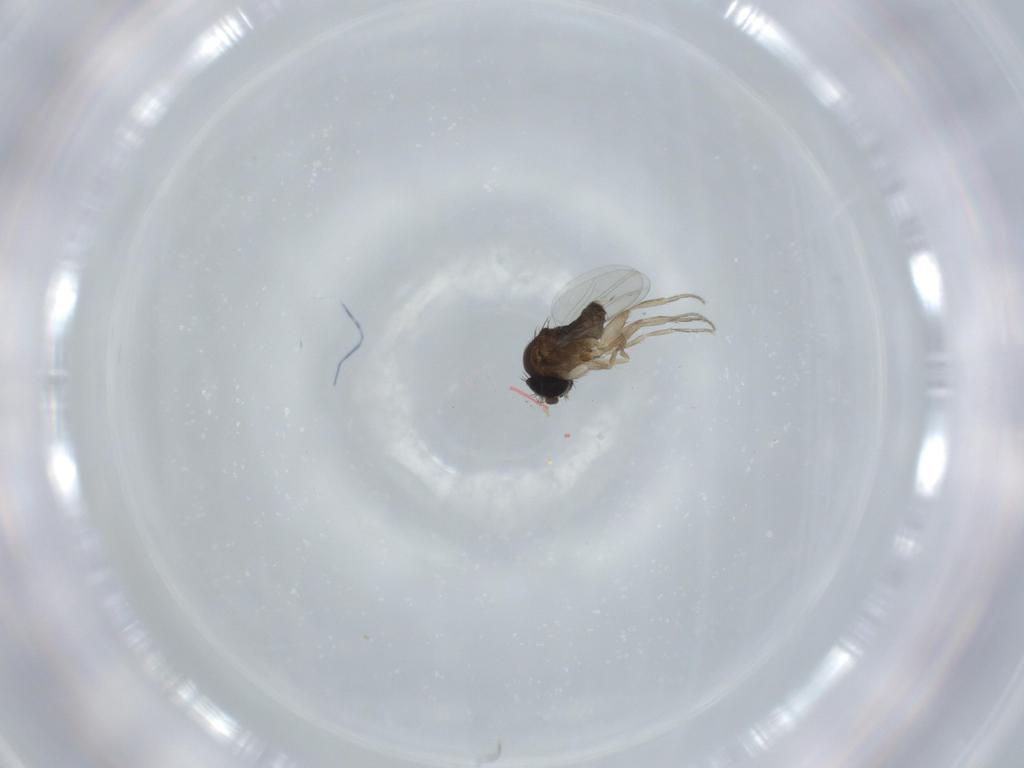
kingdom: Animalia
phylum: Arthropoda
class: Insecta
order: Diptera
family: Phoridae
